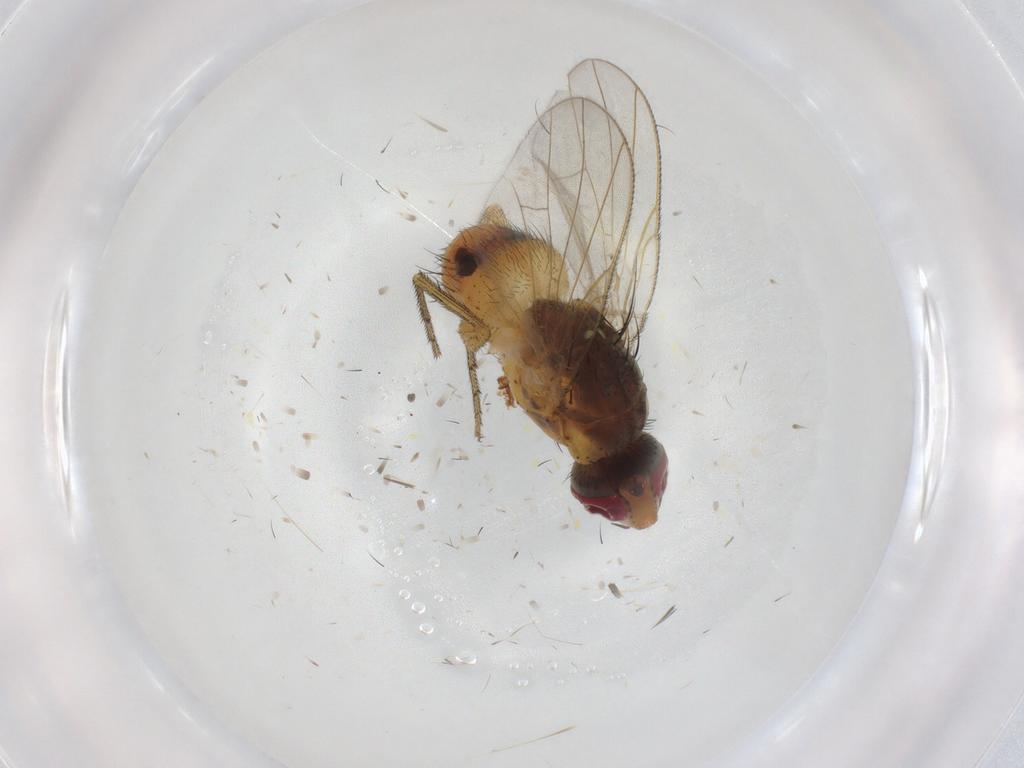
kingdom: Animalia
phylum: Arthropoda
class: Insecta
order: Diptera
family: Muscidae
